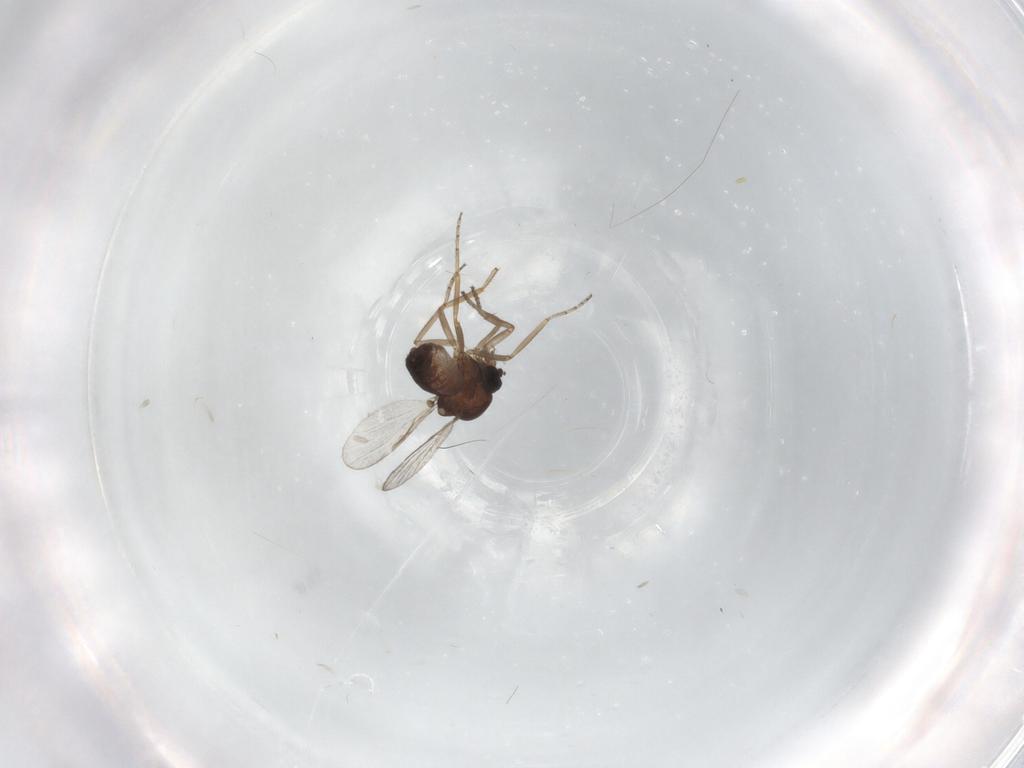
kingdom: Animalia
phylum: Arthropoda
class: Insecta
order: Diptera
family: Ceratopogonidae
